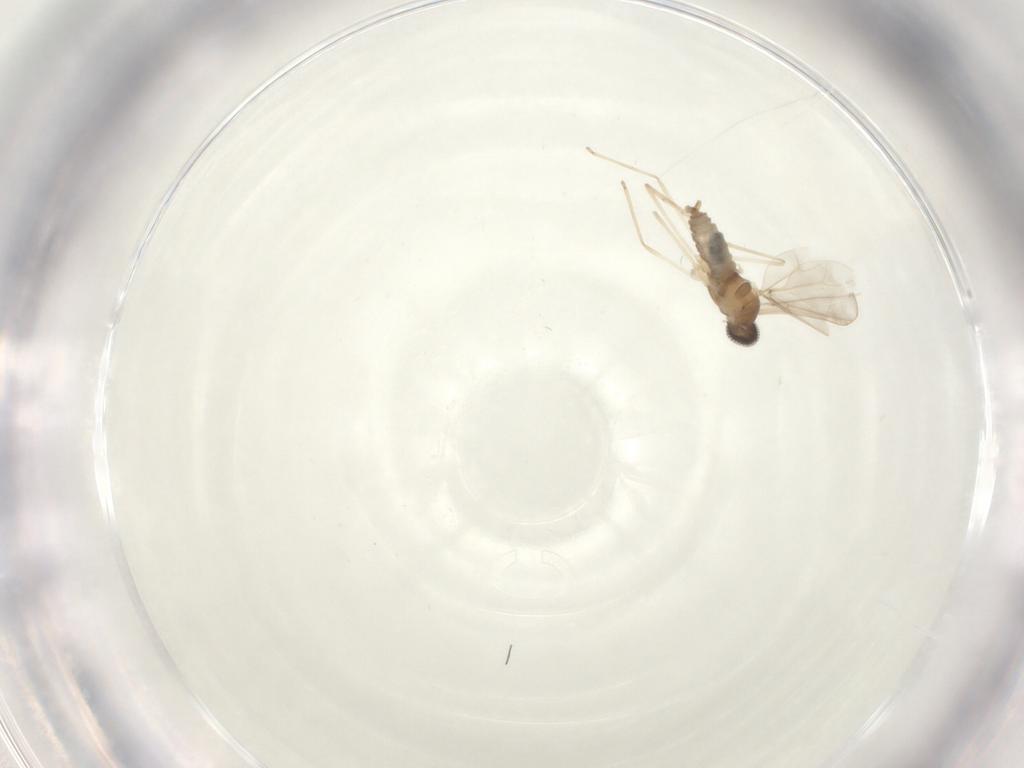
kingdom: Animalia
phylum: Arthropoda
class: Insecta
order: Diptera
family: Cecidomyiidae
